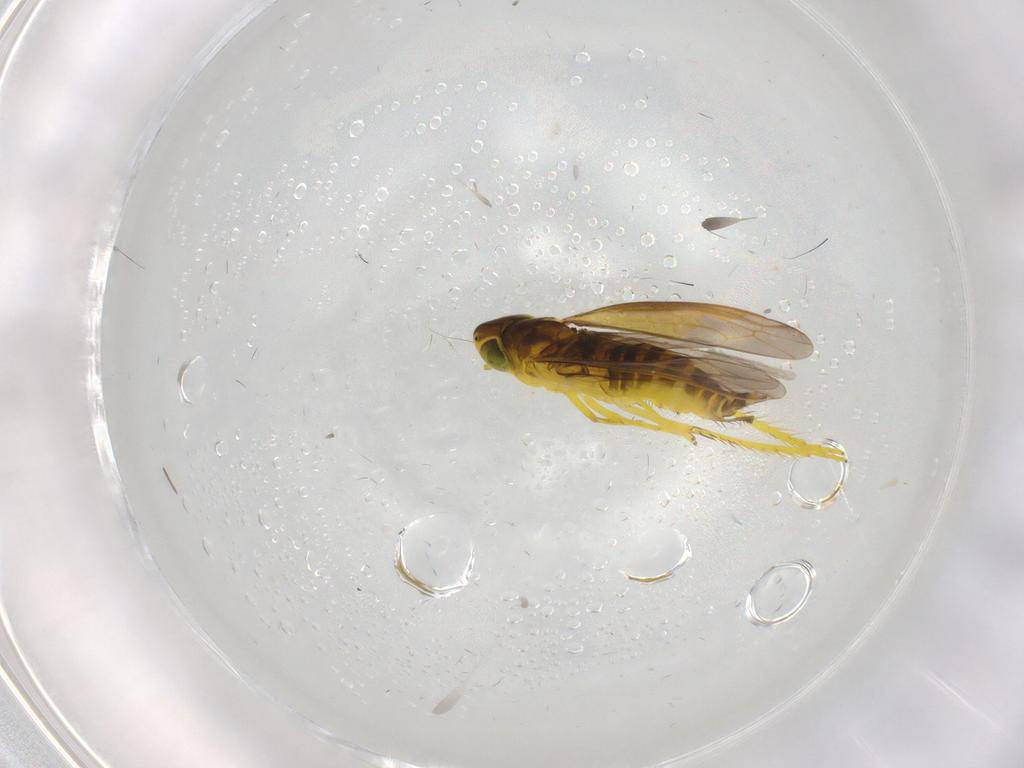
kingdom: Animalia
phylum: Arthropoda
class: Insecta
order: Hemiptera
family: Cicadellidae
